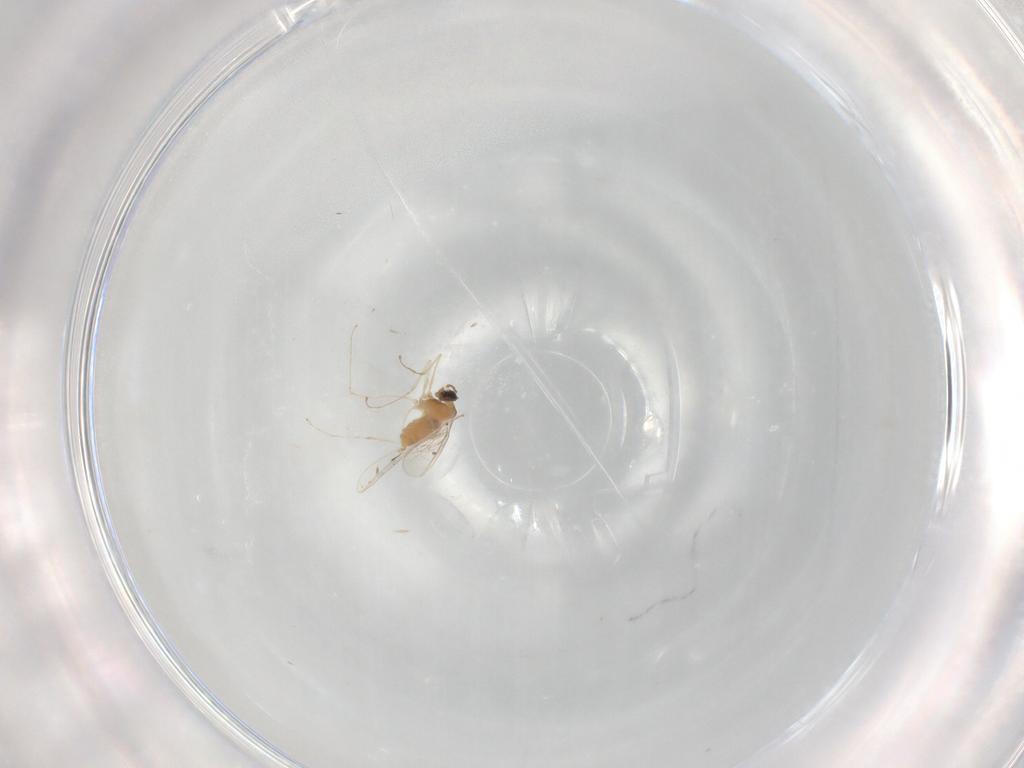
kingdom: Animalia
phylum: Arthropoda
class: Insecta
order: Diptera
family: Cecidomyiidae
